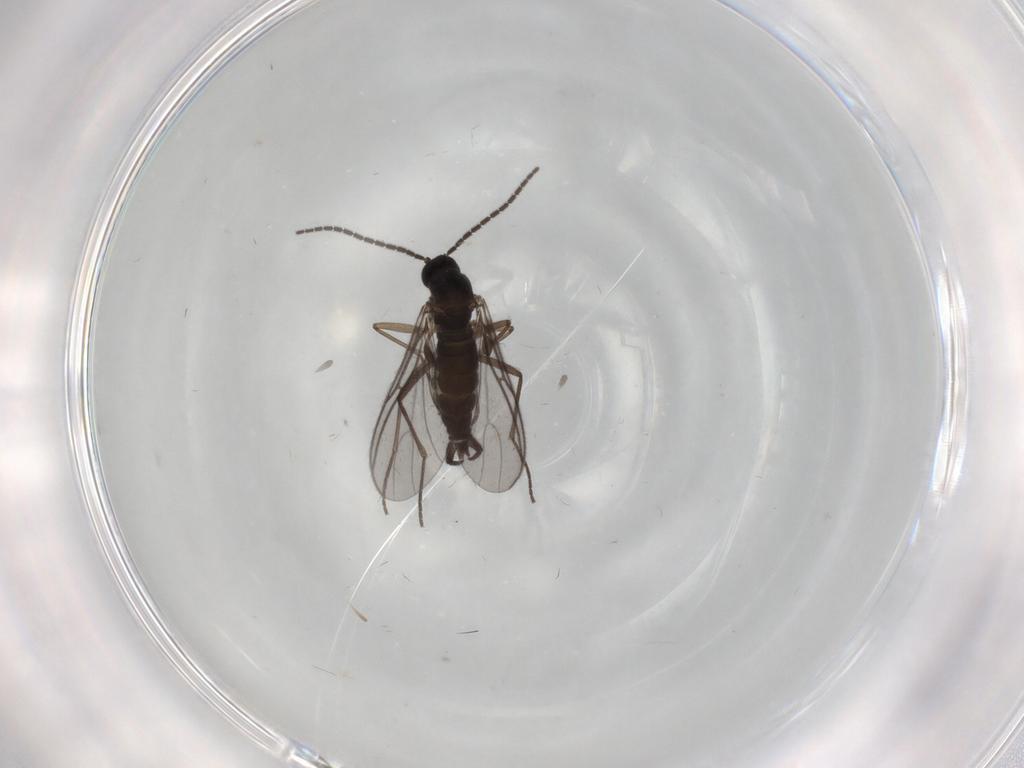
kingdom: Animalia
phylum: Arthropoda
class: Insecta
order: Diptera
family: Sciaridae
